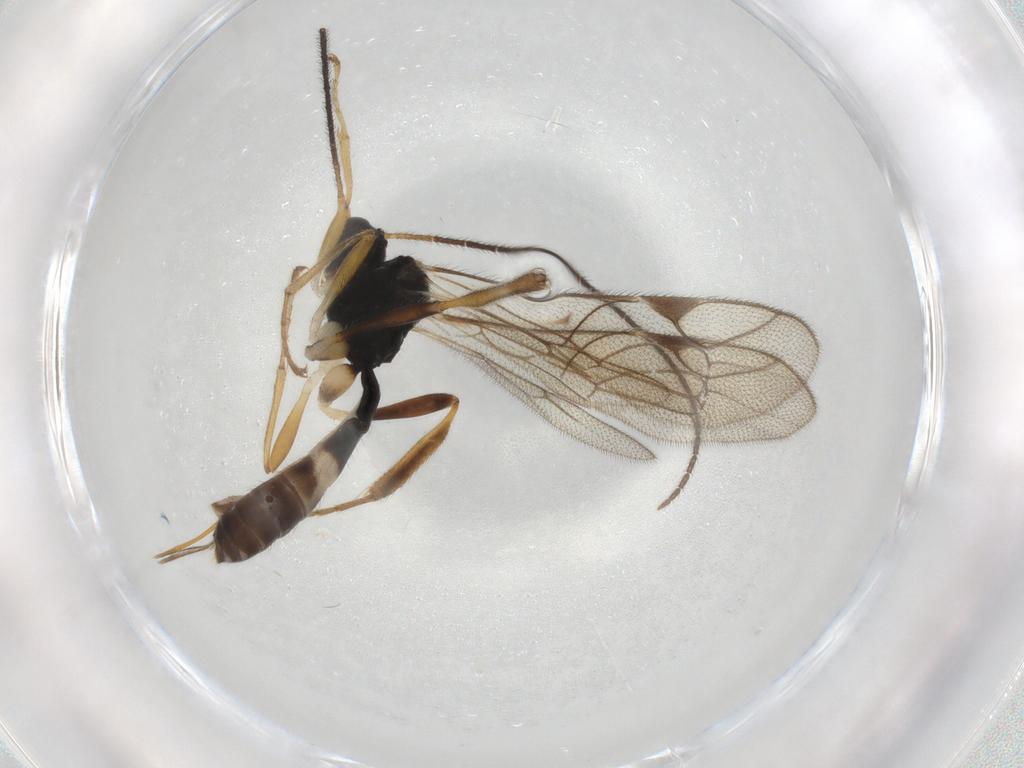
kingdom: Animalia
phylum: Arthropoda
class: Insecta
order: Hymenoptera
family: Ichneumonidae
